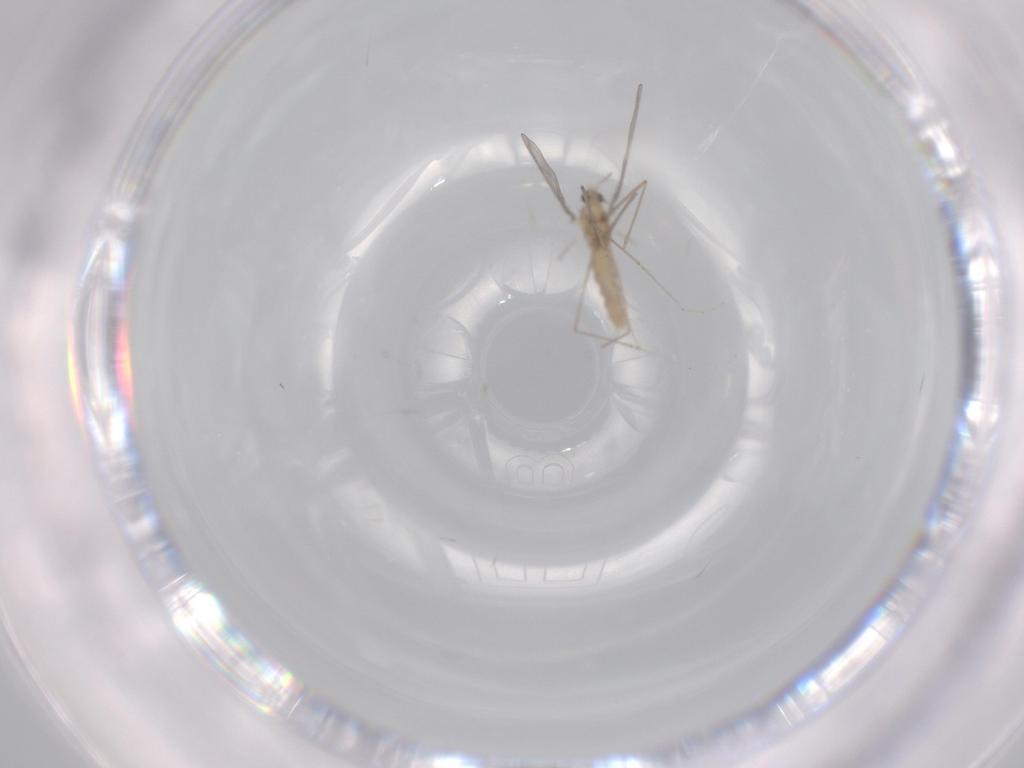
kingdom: Animalia
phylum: Arthropoda
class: Insecta
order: Diptera
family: Cecidomyiidae
